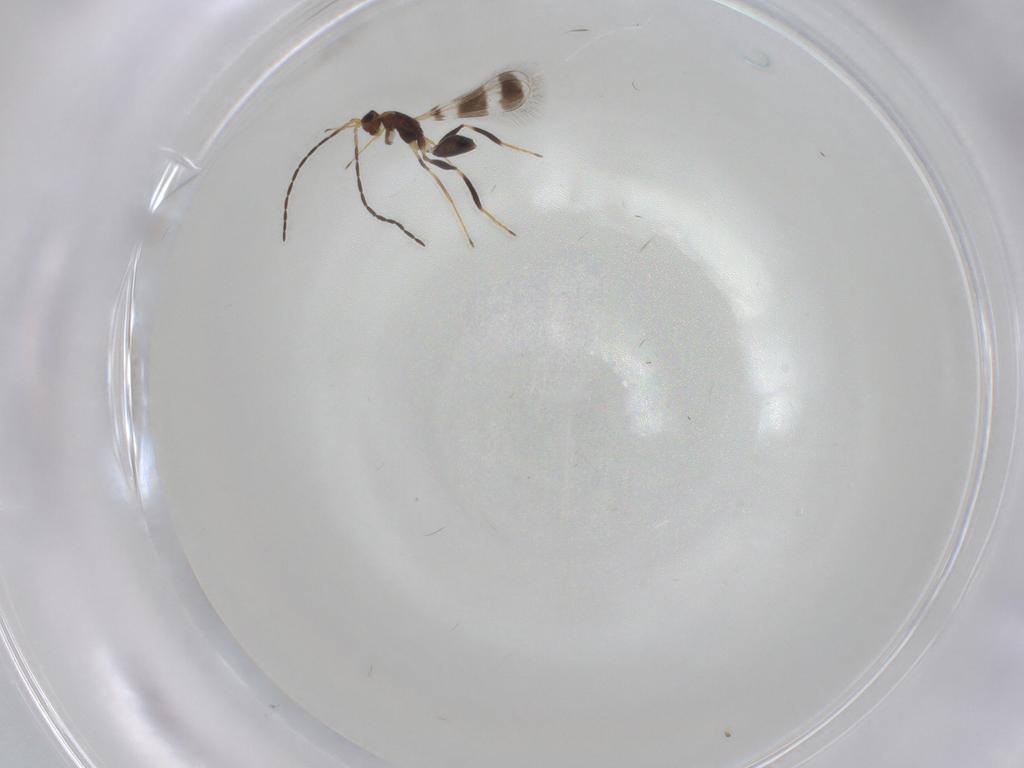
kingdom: Animalia
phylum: Arthropoda
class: Insecta
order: Hymenoptera
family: Mymaridae
